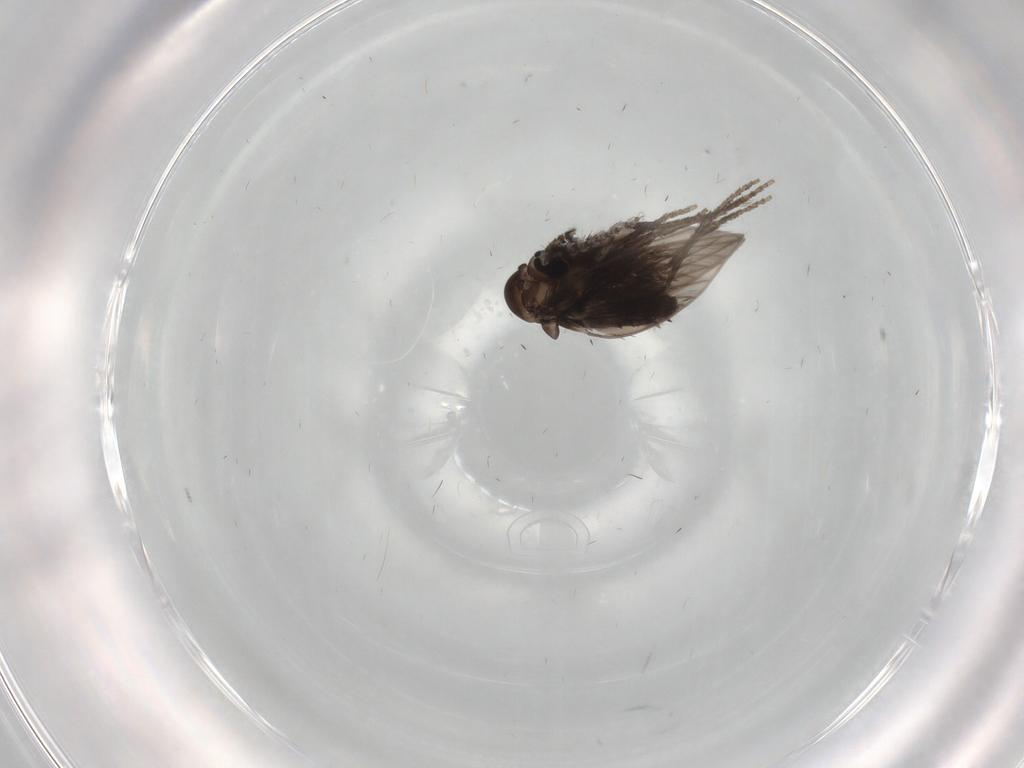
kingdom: Animalia
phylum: Arthropoda
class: Insecta
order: Diptera
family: Psychodidae
